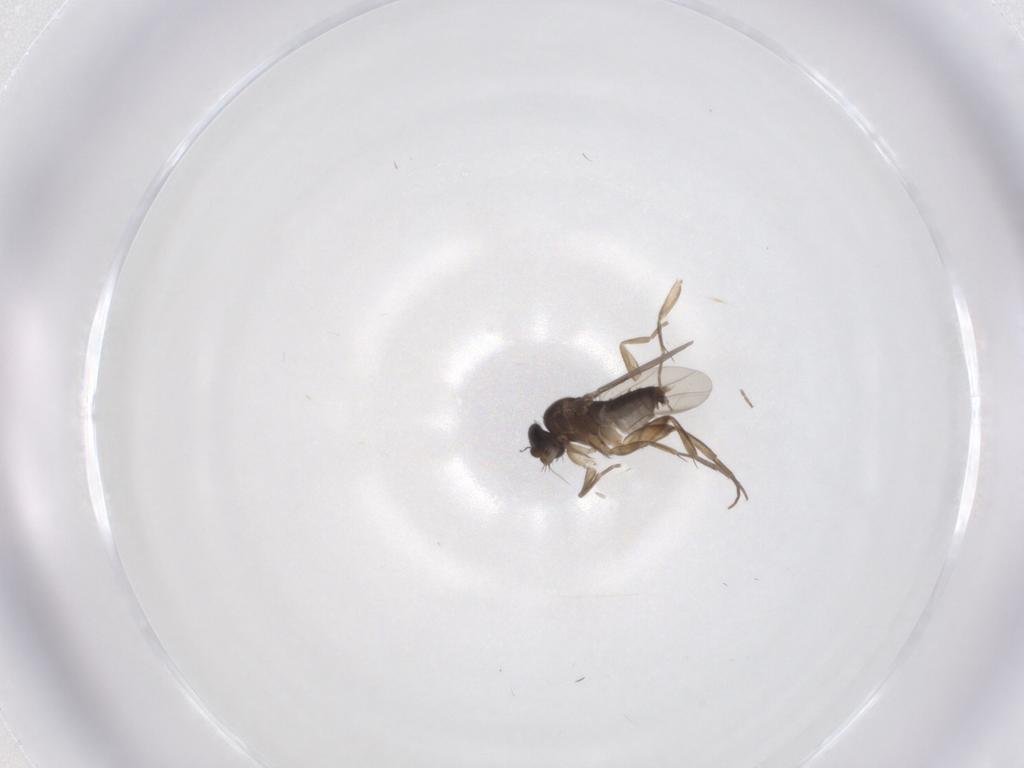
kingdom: Animalia
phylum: Arthropoda
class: Insecta
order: Diptera
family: Phoridae
